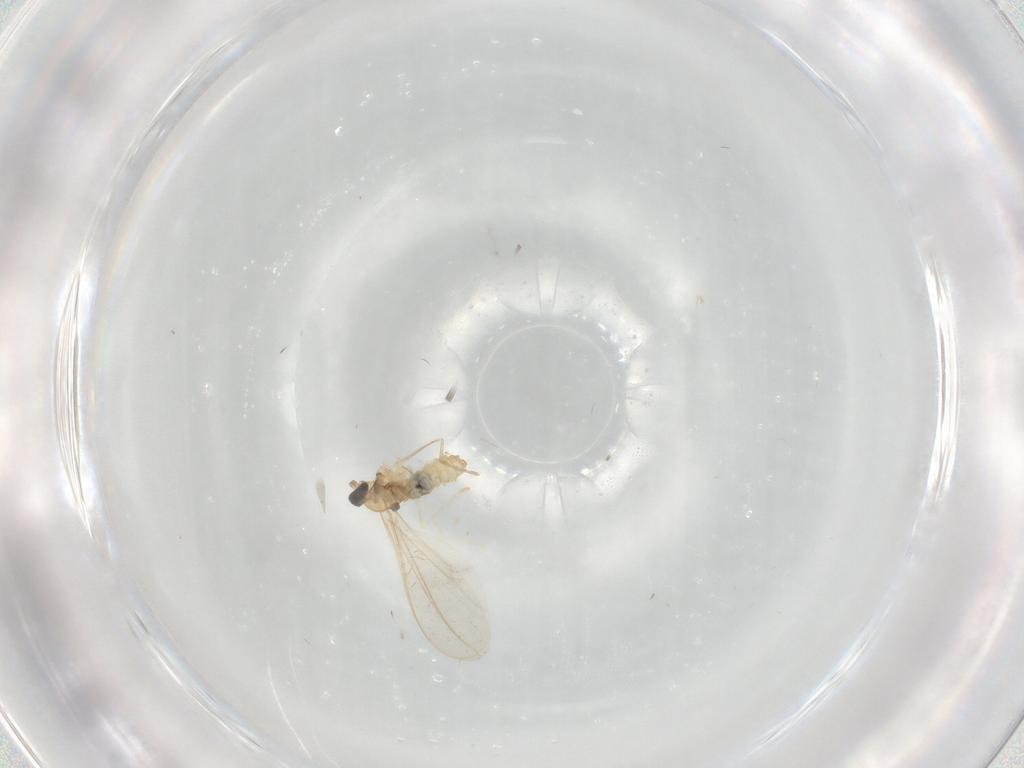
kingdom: Animalia
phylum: Arthropoda
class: Insecta
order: Diptera
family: Cecidomyiidae
